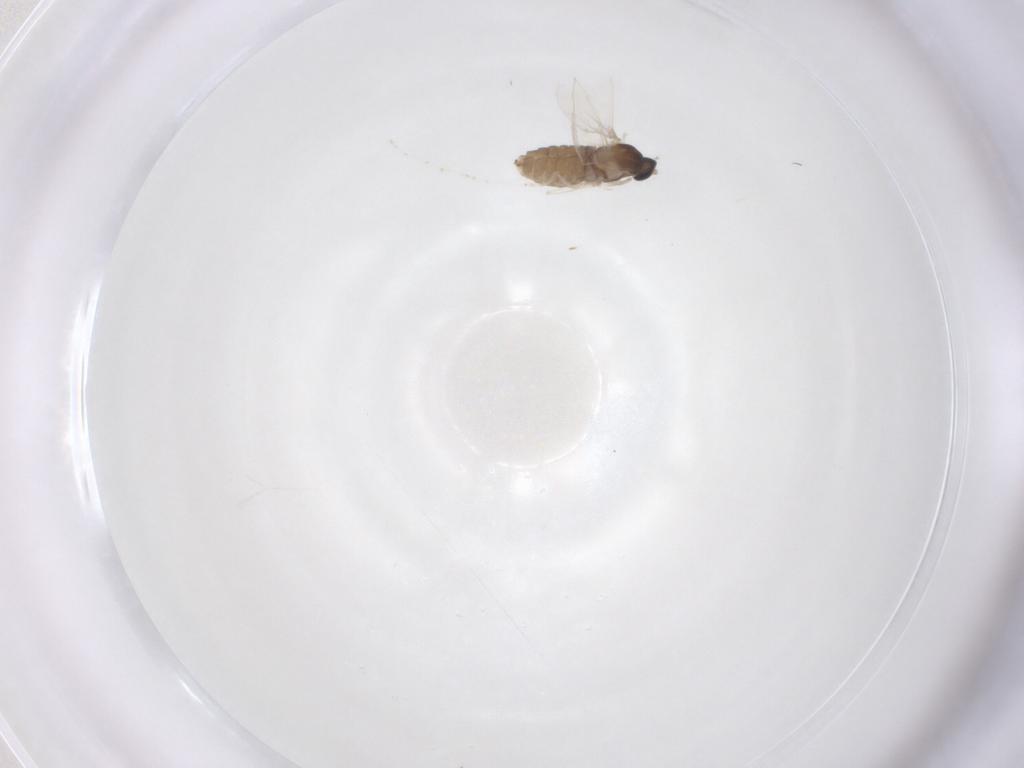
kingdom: Animalia
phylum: Arthropoda
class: Insecta
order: Diptera
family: Cecidomyiidae
